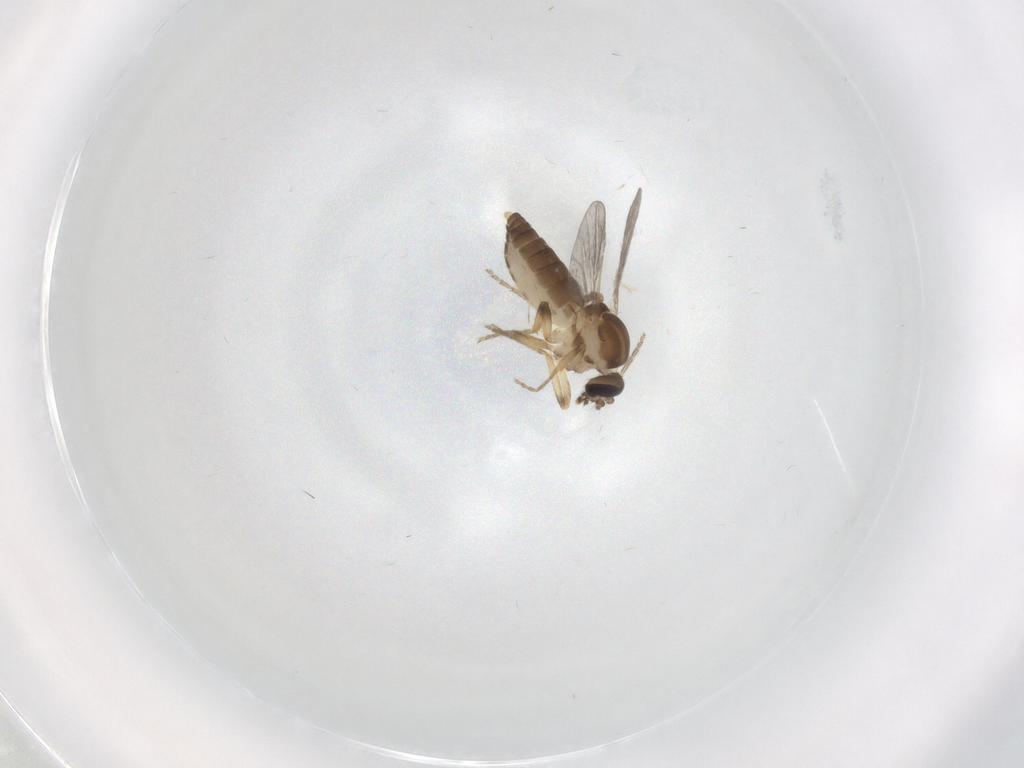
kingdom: Animalia
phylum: Arthropoda
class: Insecta
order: Diptera
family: Ceratopogonidae
